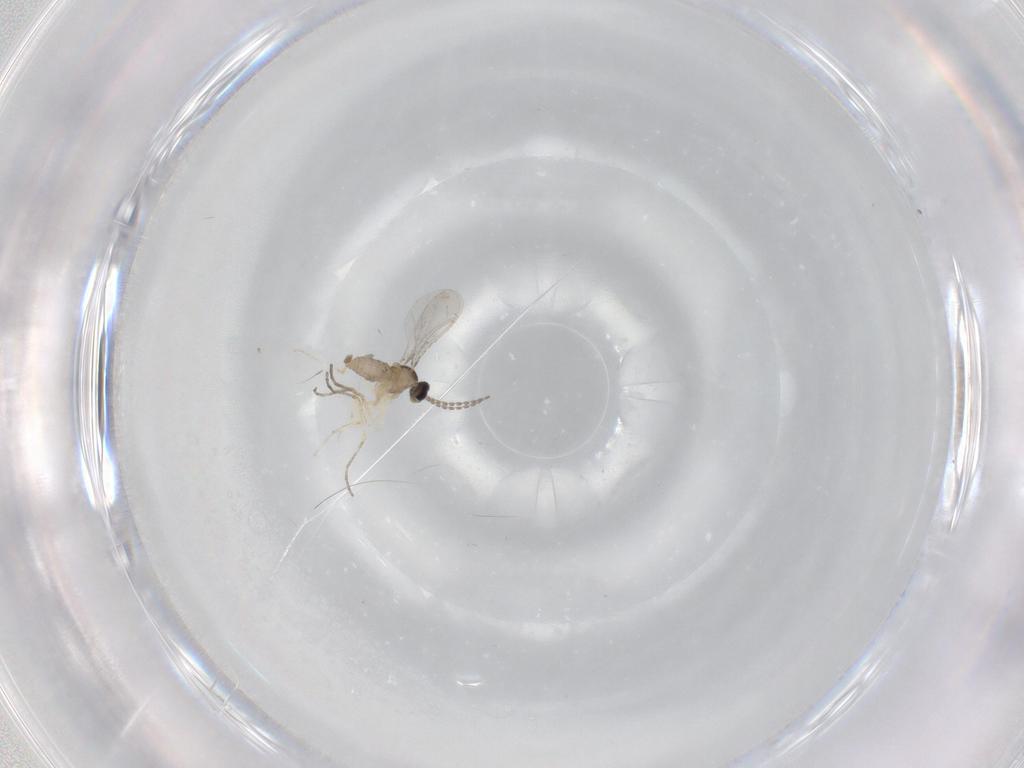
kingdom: Animalia
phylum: Arthropoda
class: Insecta
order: Diptera
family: Cecidomyiidae
